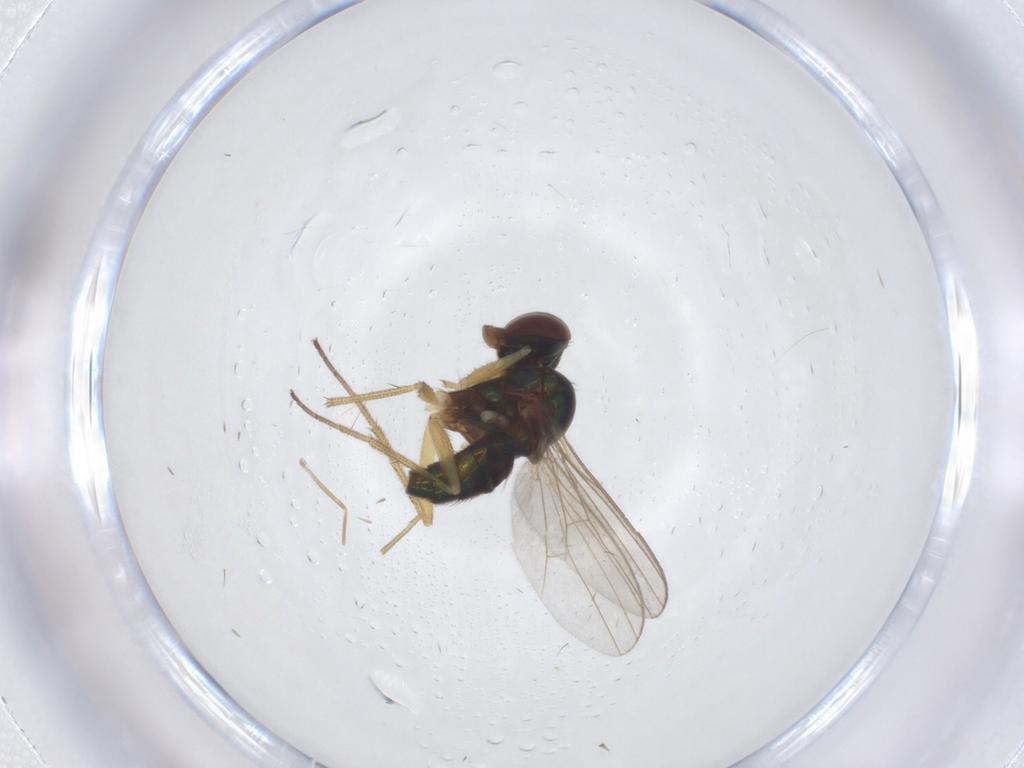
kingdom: Animalia
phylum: Arthropoda
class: Insecta
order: Diptera
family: Dolichopodidae
